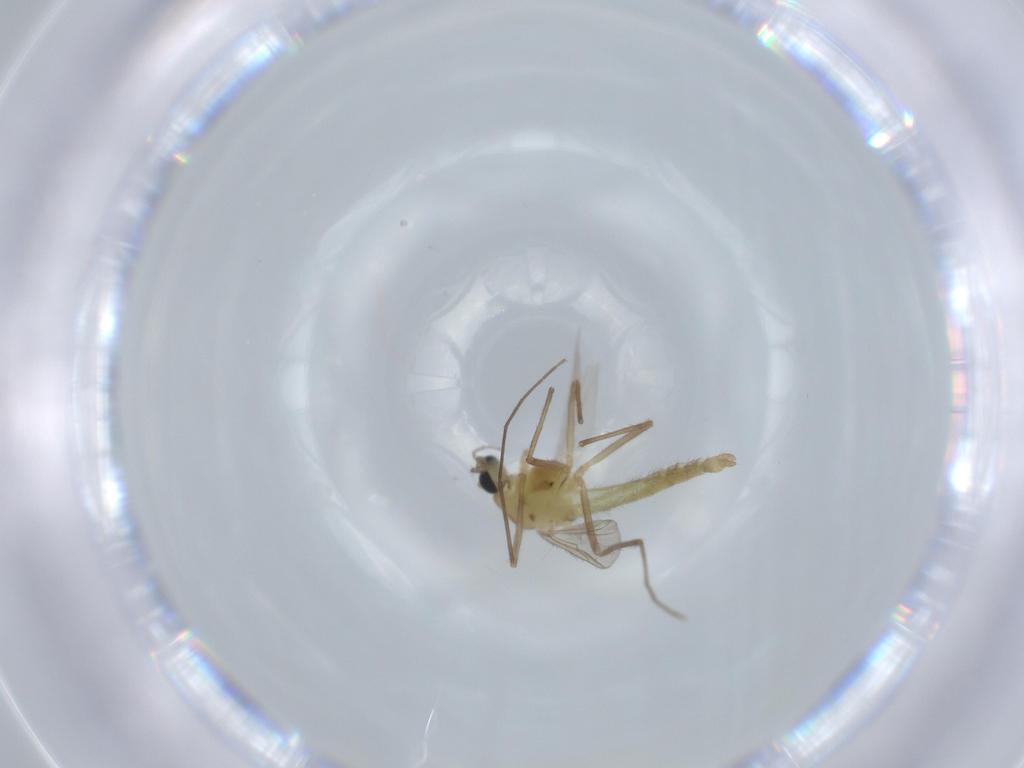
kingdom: Animalia
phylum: Arthropoda
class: Insecta
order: Diptera
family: Chironomidae
